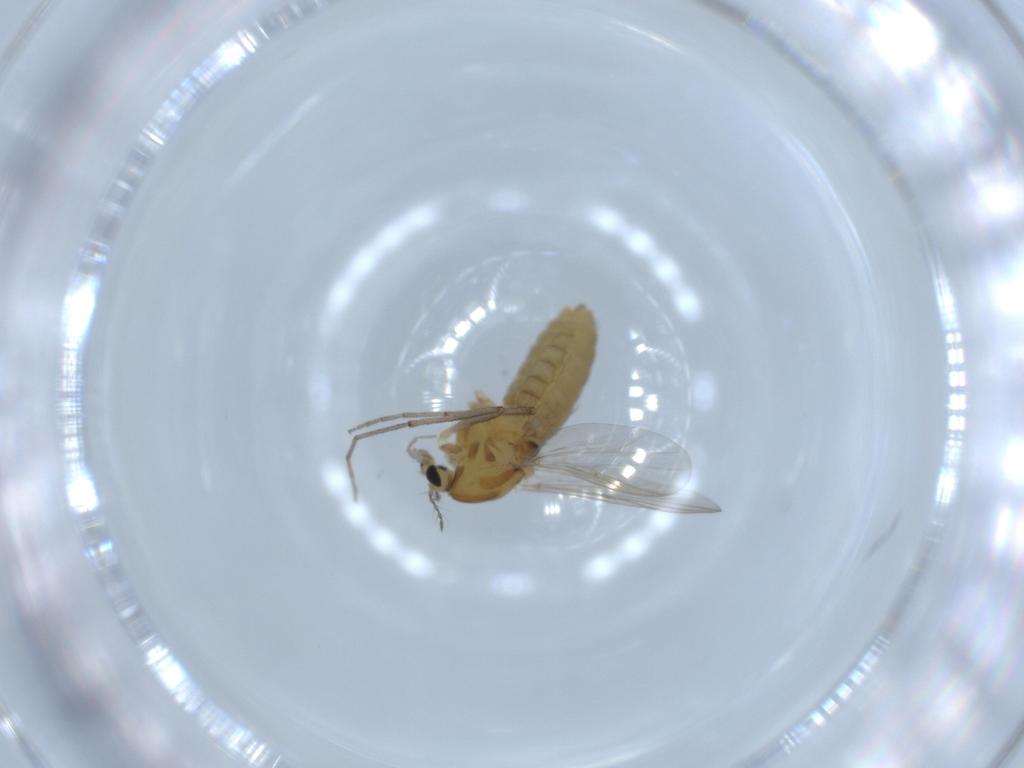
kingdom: Animalia
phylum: Arthropoda
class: Insecta
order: Diptera
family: Chironomidae
